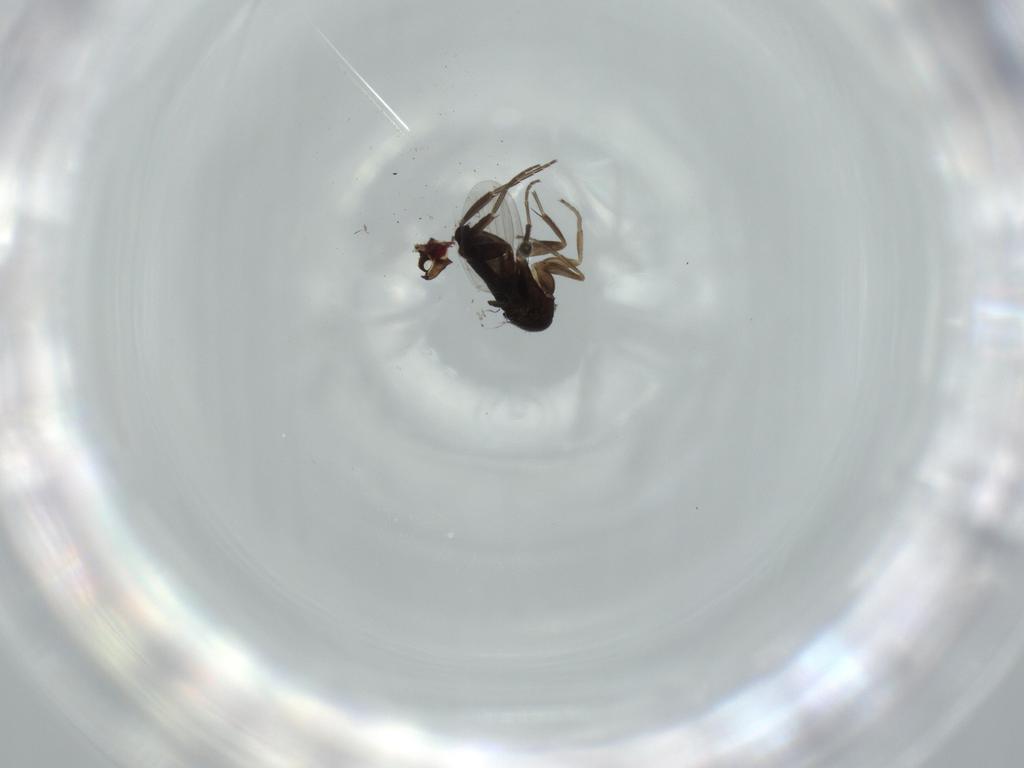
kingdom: Animalia
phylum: Arthropoda
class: Insecta
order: Diptera
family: Phoridae
